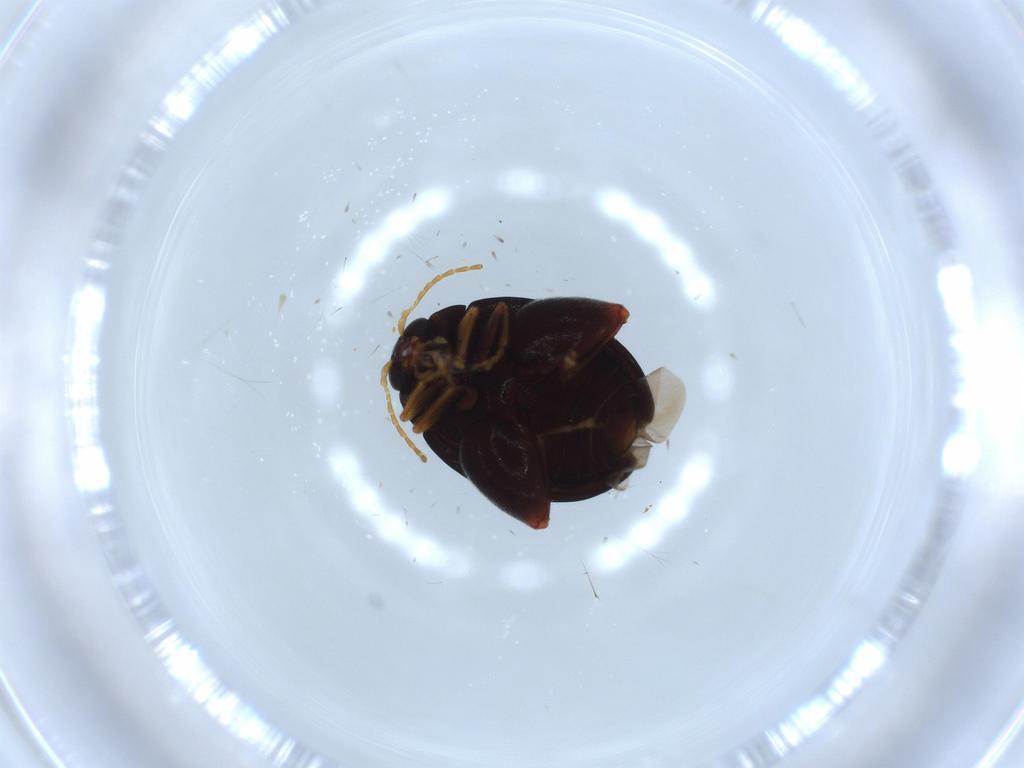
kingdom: Animalia
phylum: Arthropoda
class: Insecta
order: Coleoptera
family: Chrysomelidae
